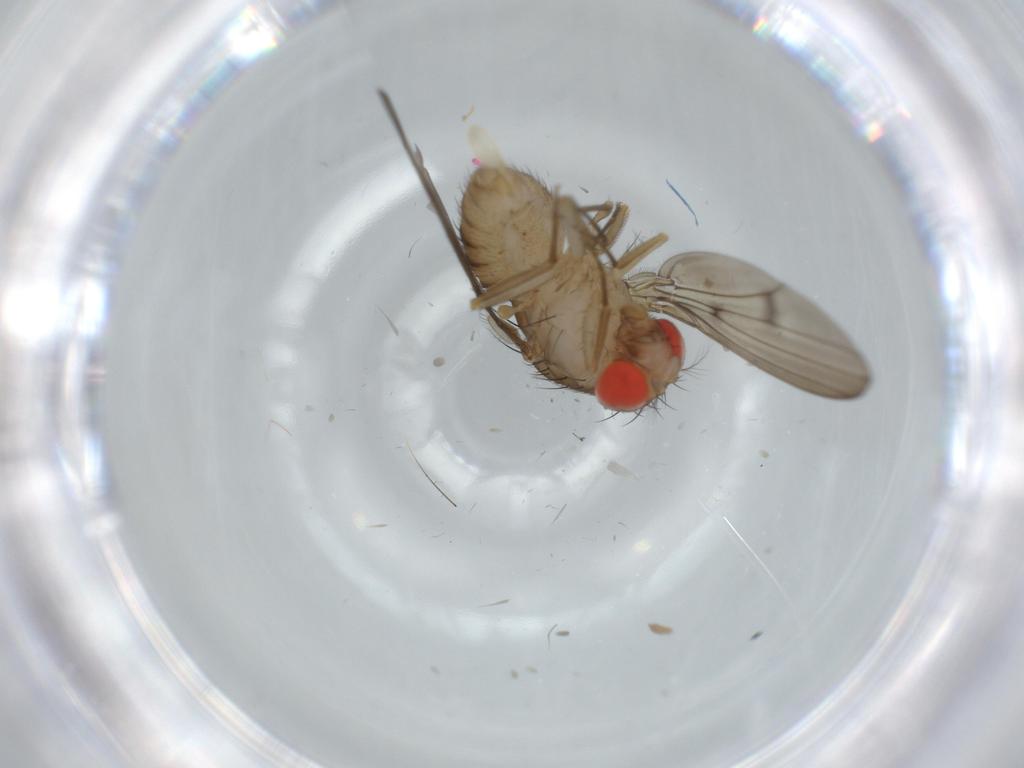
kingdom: Animalia
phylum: Arthropoda
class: Insecta
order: Diptera
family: Drosophilidae
